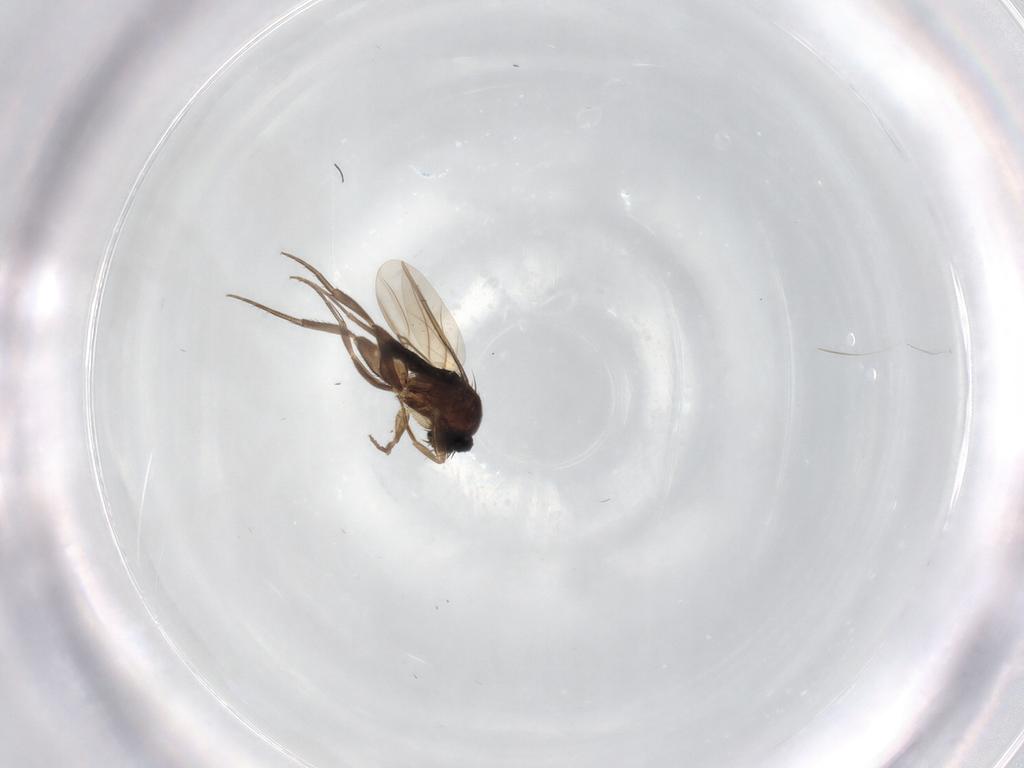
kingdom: Animalia
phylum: Arthropoda
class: Insecta
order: Diptera
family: Phoridae
